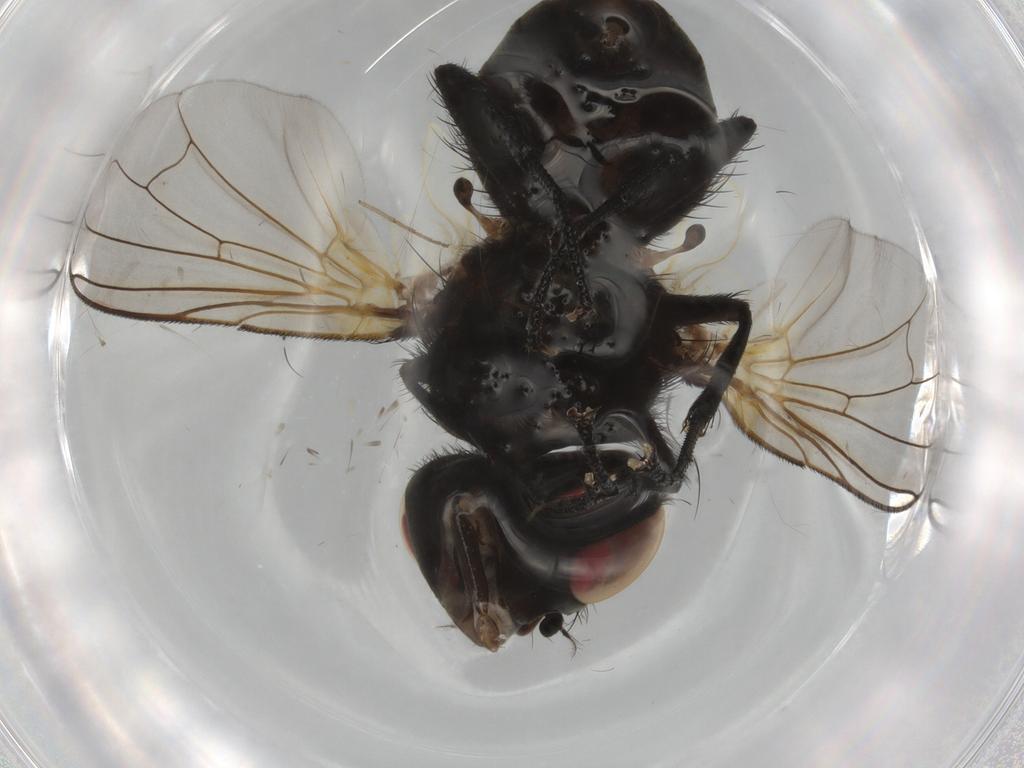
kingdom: Animalia
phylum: Arthropoda
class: Insecta
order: Diptera
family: Calliphoridae
